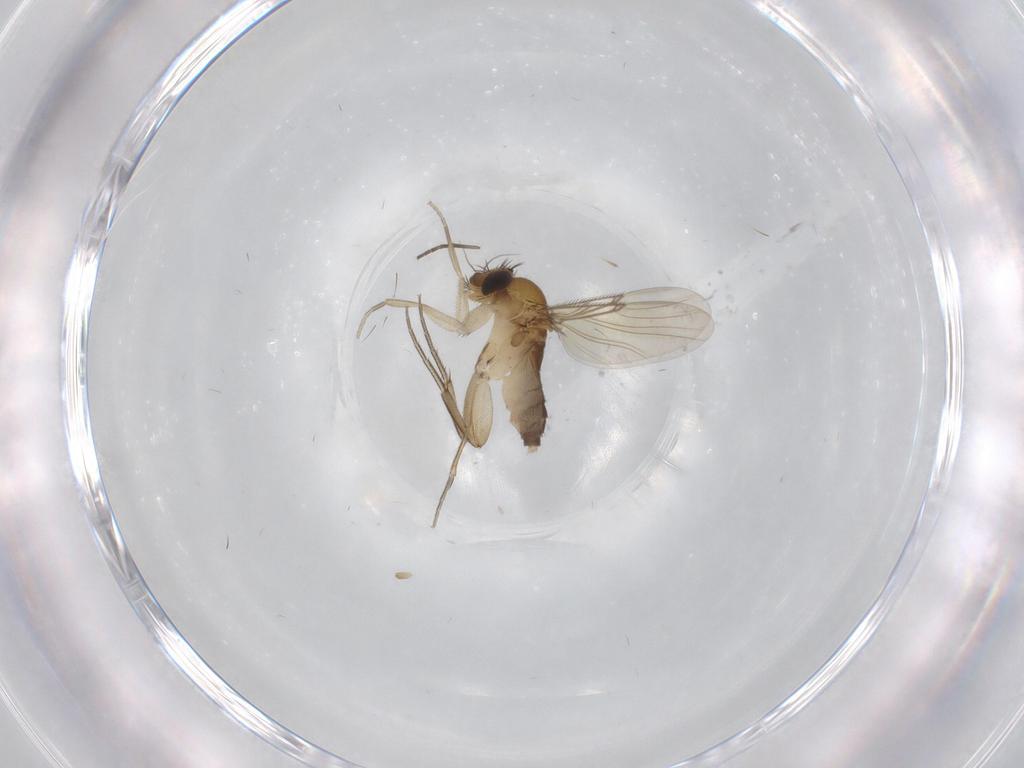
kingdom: Animalia
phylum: Arthropoda
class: Insecta
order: Diptera
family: Phoridae
